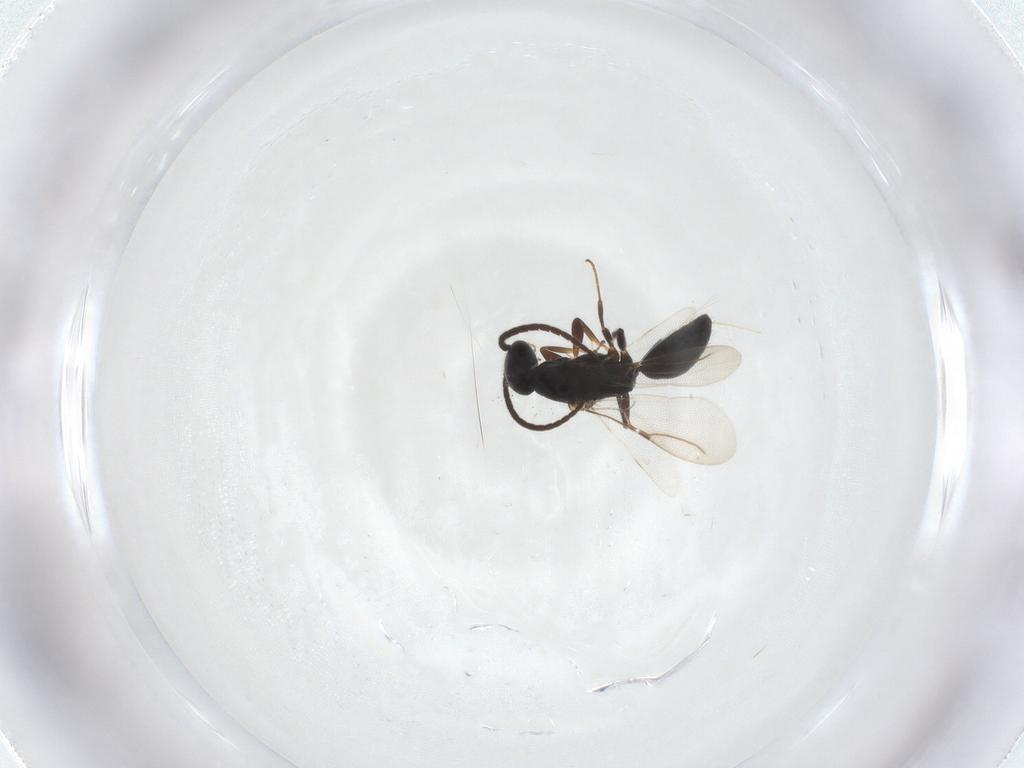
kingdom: Animalia
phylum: Arthropoda
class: Insecta
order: Hymenoptera
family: Bethylidae
